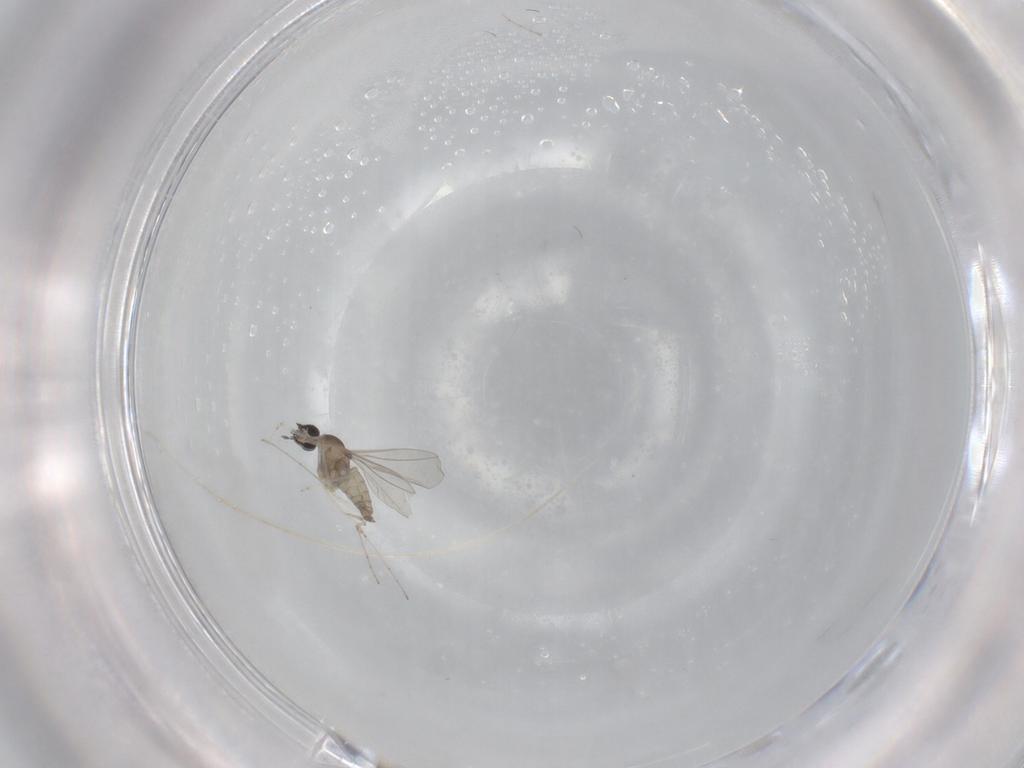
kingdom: Animalia
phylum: Arthropoda
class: Insecta
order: Diptera
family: Cecidomyiidae
